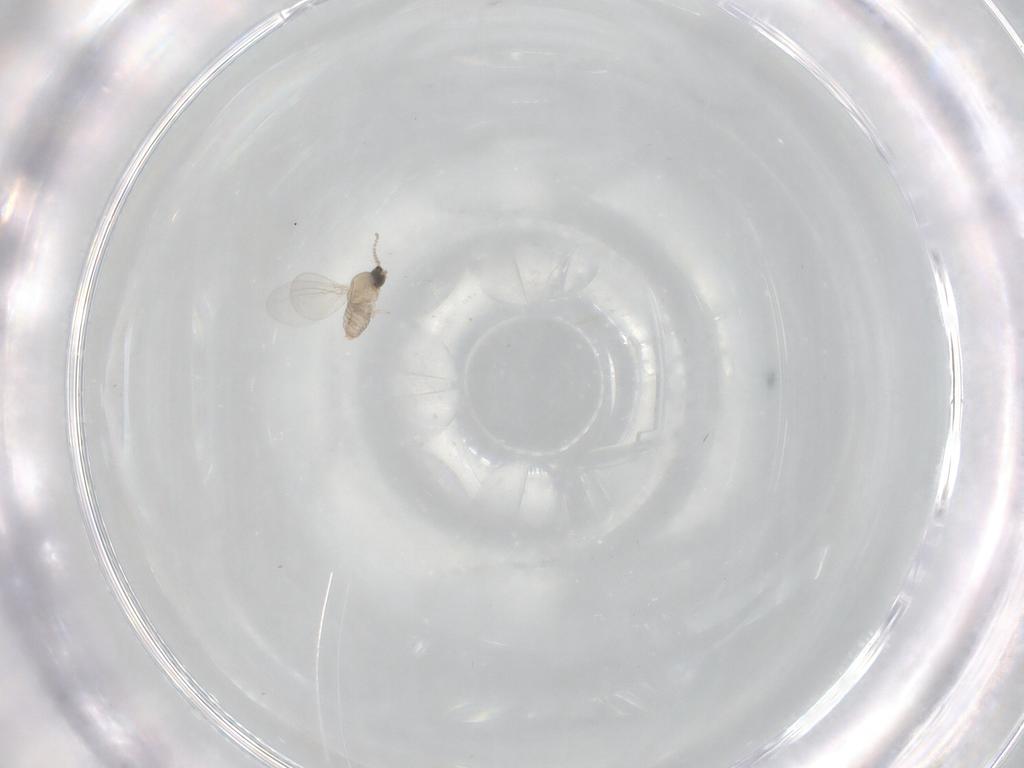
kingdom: Animalia
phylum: Arthropoda
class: Insecta
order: Diptera
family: Cecidomyiidae
